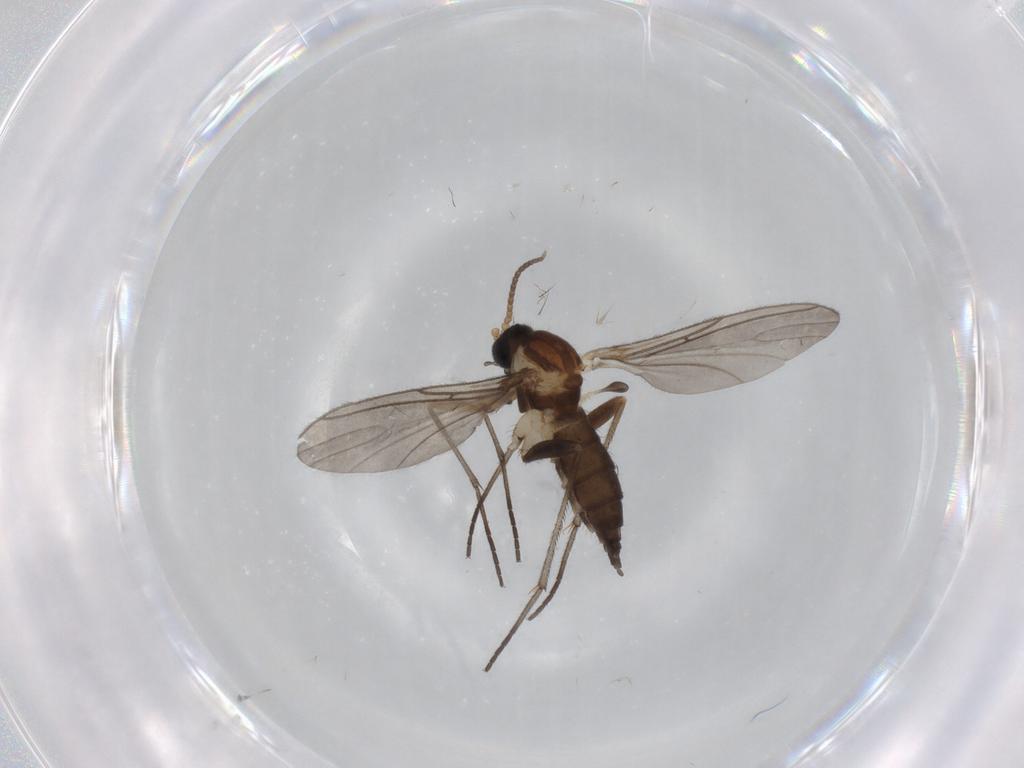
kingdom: Animalia
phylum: Arthropoda
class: Insecta
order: Diptera
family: Sciaridae
